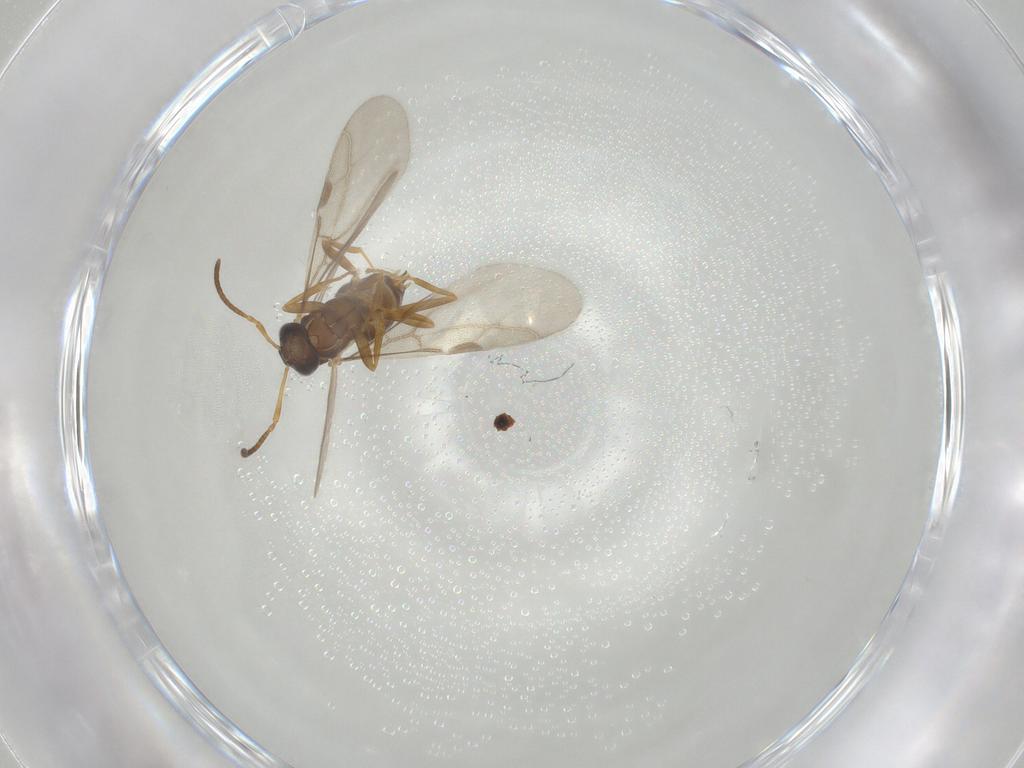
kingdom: Animalia
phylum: Arthropoda
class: Insecta
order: Hymenoptera
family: Formicidae
